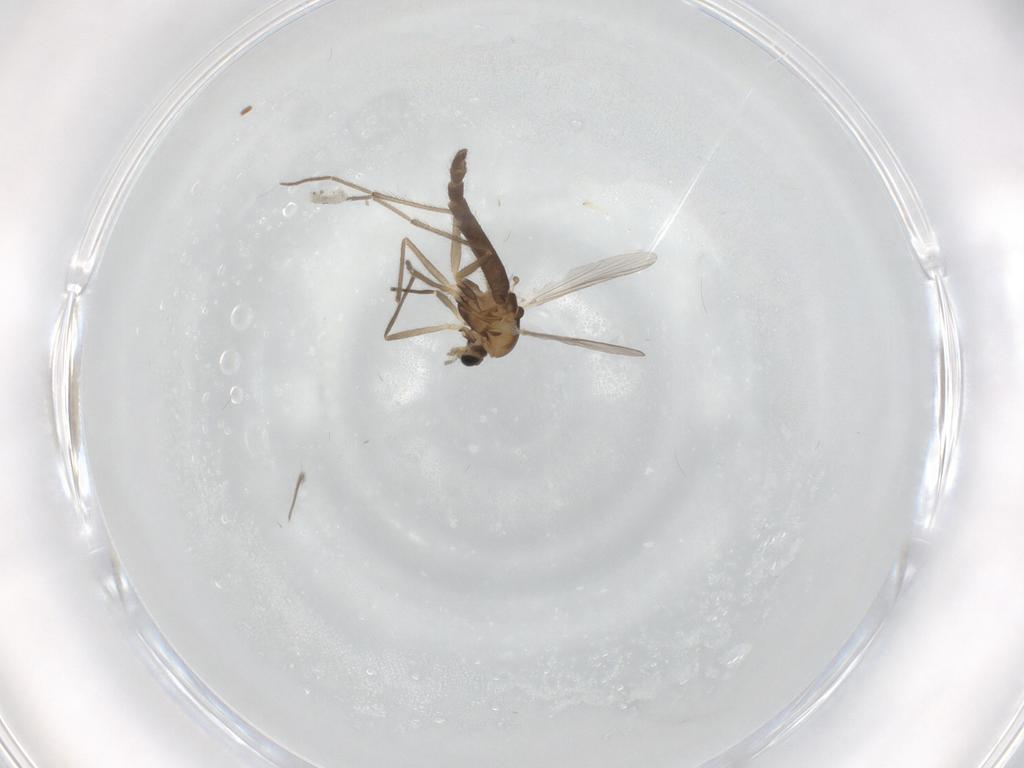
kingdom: Animalia
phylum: Arthropoda
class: Insecta
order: Diptera
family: Chironomidae
